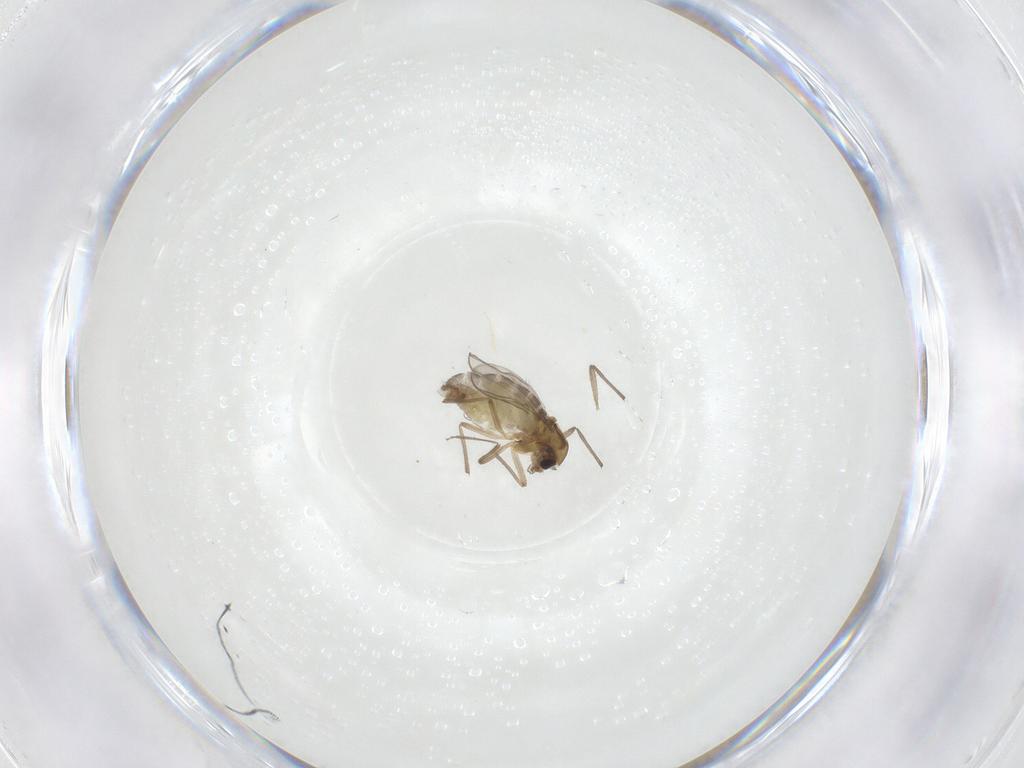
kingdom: Animalia
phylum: Arthropoda
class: Insecta
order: Diptera
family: Chironomidae
